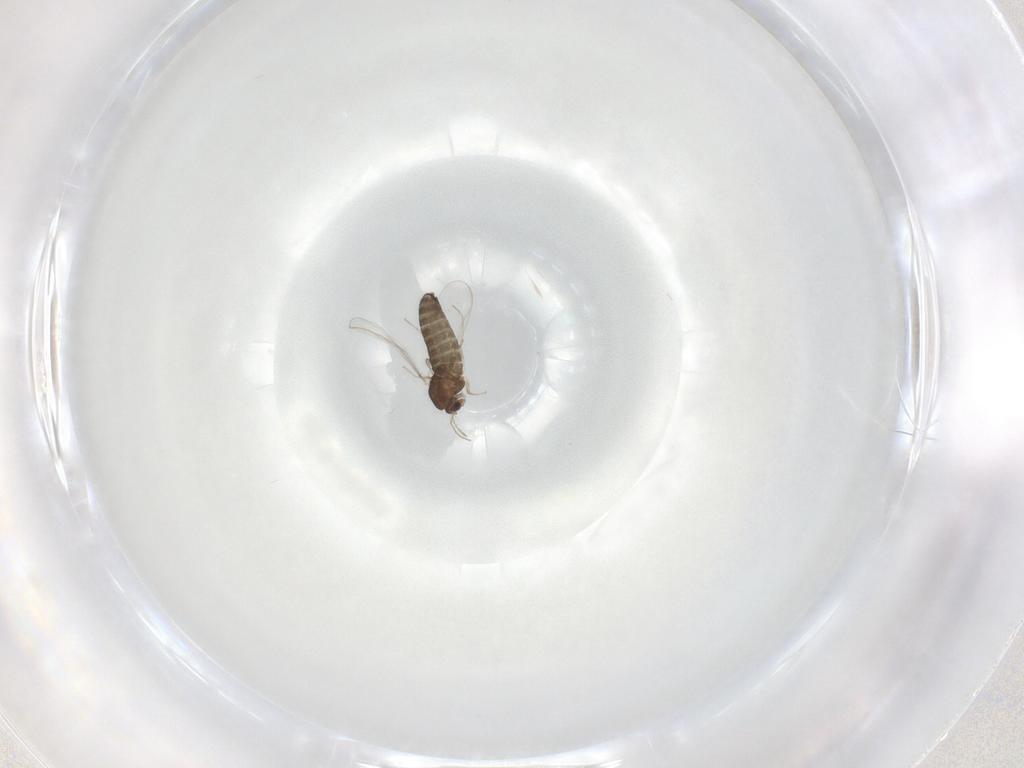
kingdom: Animalia
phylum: Arthropoda
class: Insecta
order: Diptera
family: Chironomidae
